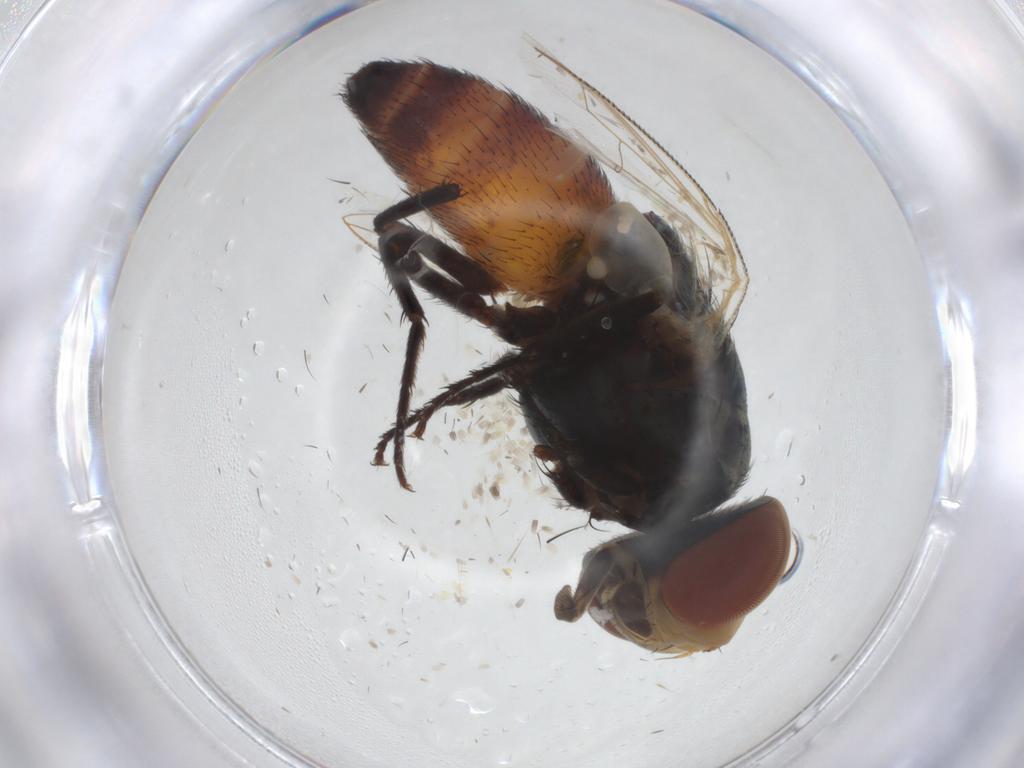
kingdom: Animalia
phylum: Arthropoda
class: Insecta
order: Diptera
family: Sarcophagidae
